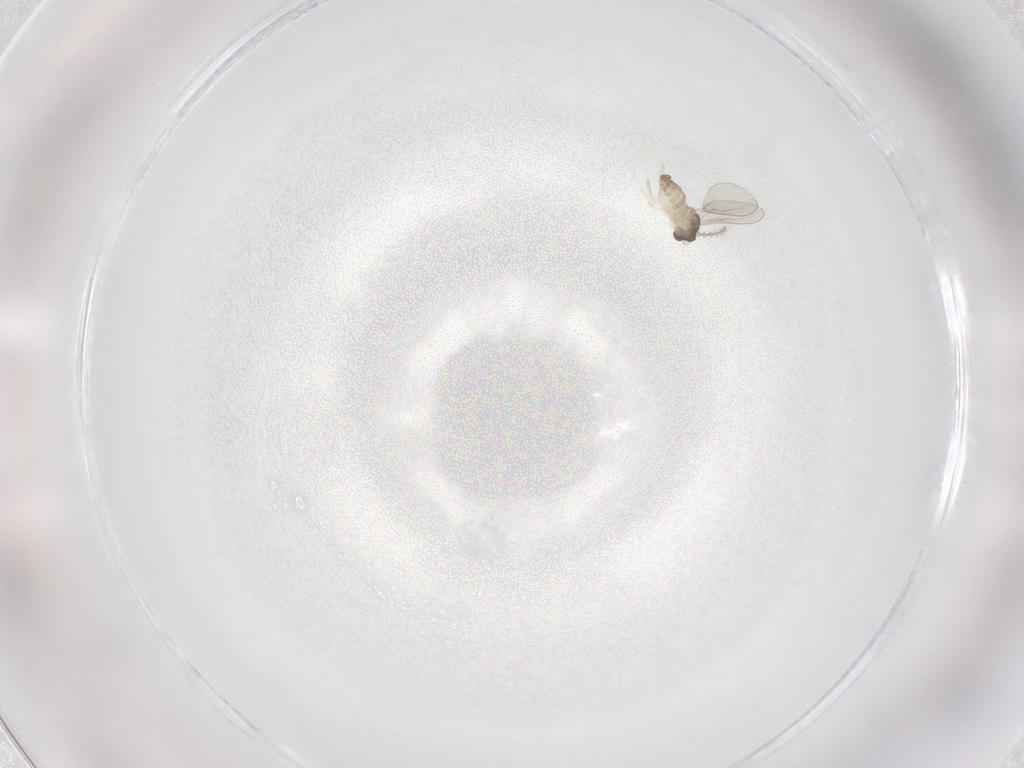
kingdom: Animalia
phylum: Arthropoda
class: Insecta
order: Diptera
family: Cecidomyiidae
